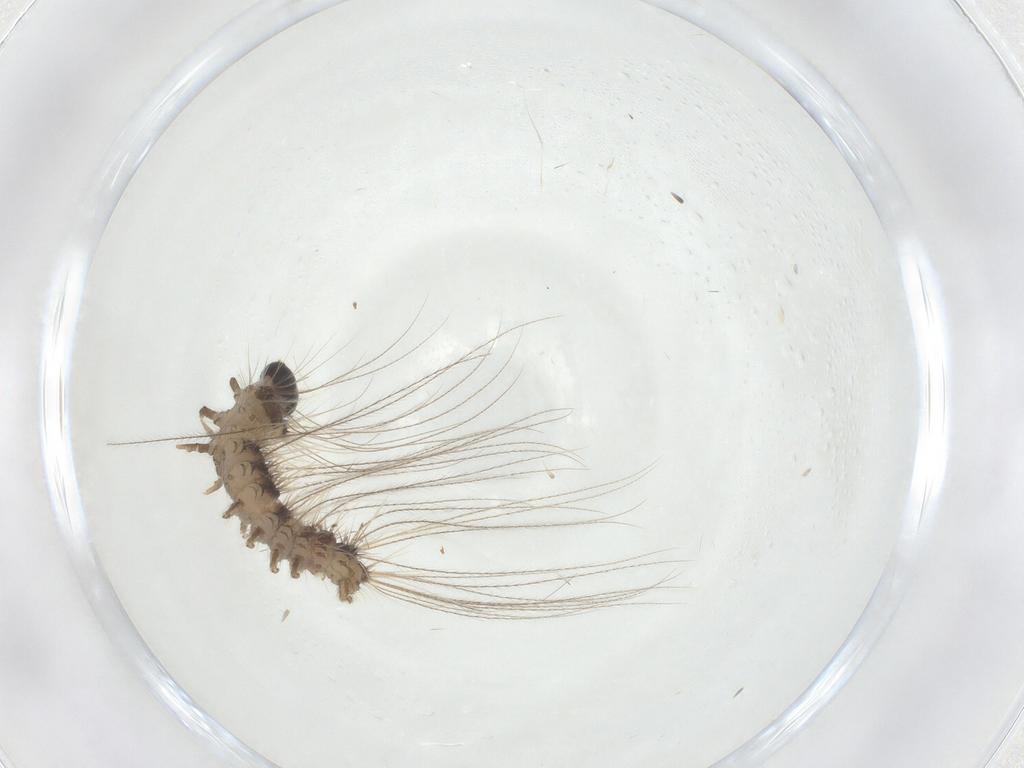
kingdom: Animalia
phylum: Arthropoda
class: Insecta
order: Lepidoptera
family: Erebidae
